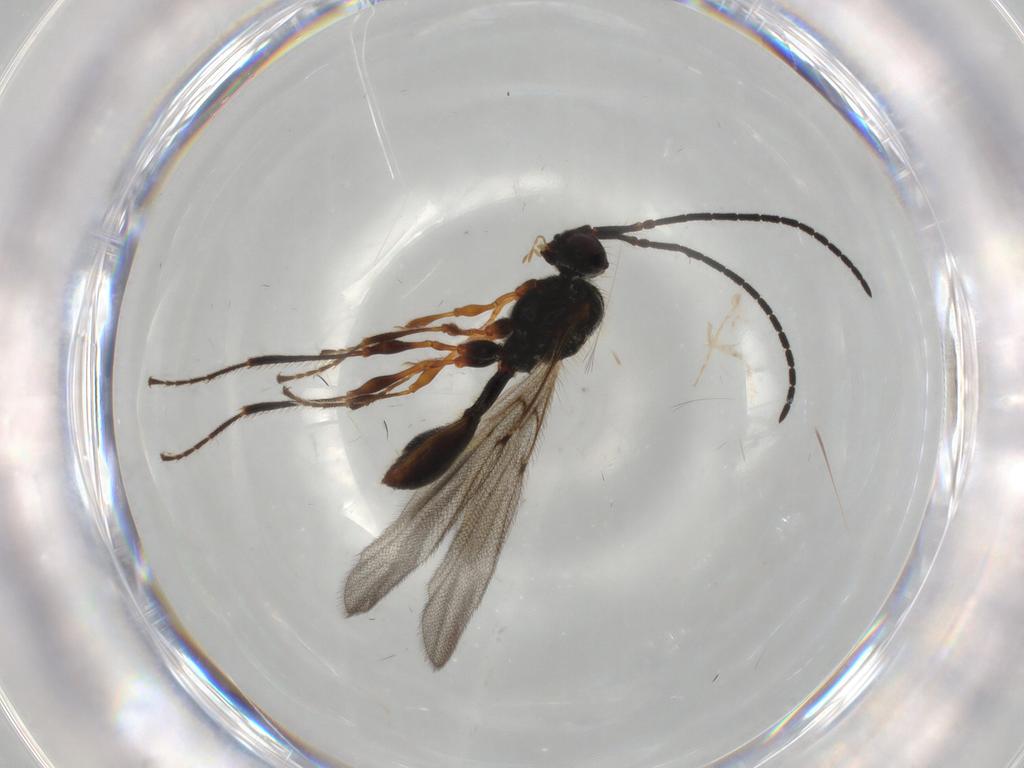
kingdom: Animalia
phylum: Arthropoda
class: Insecta
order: Hymenoptera
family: Diapriidae
